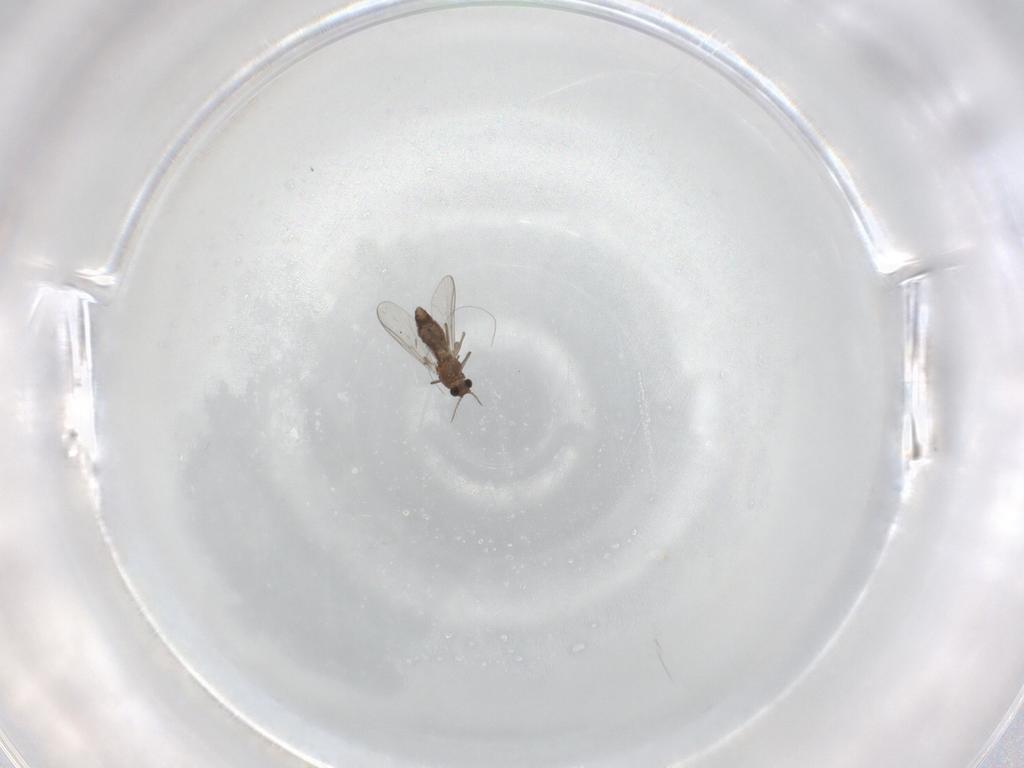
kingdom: Animalia
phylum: Arthropoda
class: Insecta
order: Diptera
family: Chironomidae
